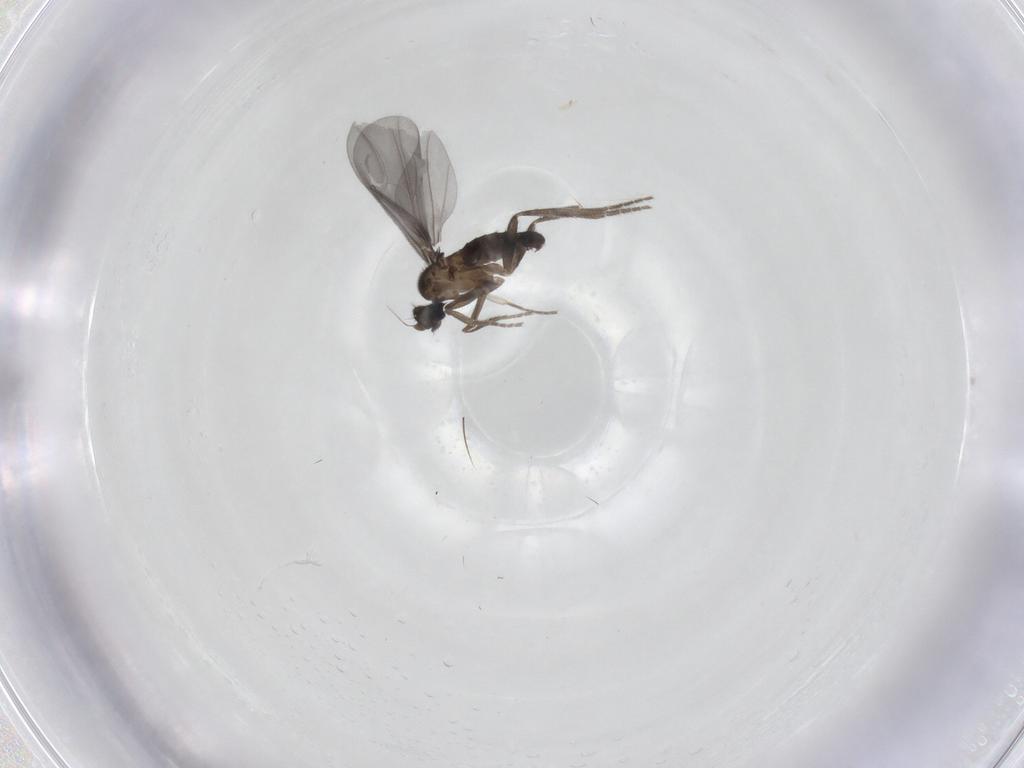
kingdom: Animalia
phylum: Arthropoda
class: Insecta
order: Diptera
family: Phoridae
